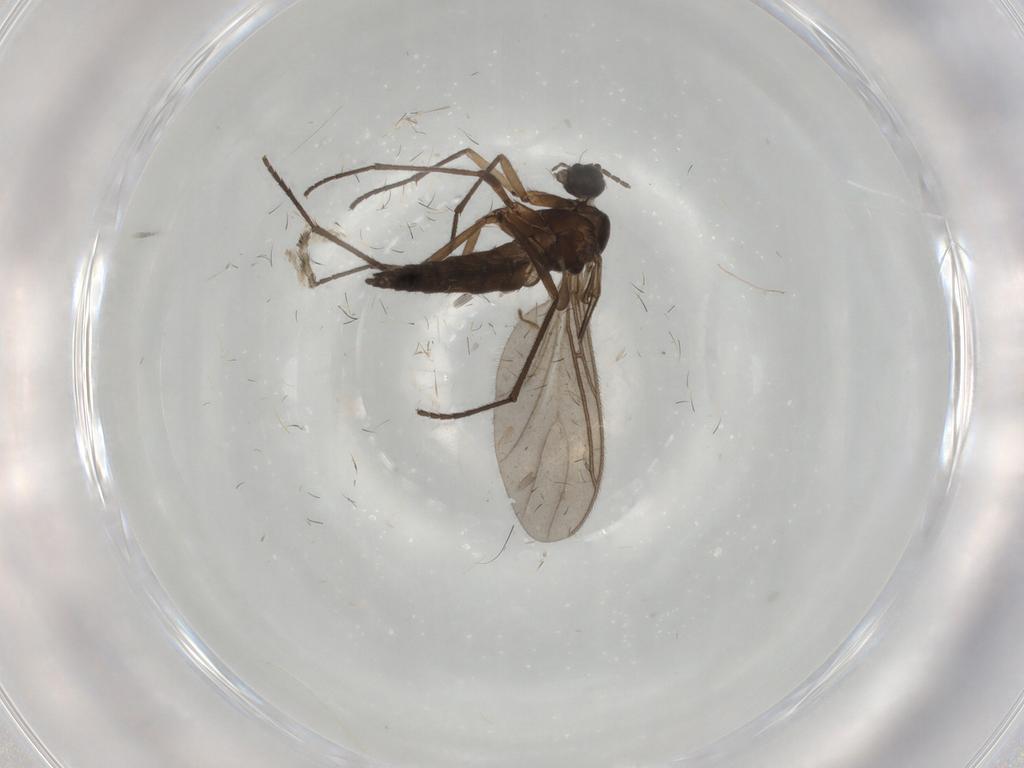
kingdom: Animalia
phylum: Arthropoda
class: Insecta
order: Diptera
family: Sciaridae
